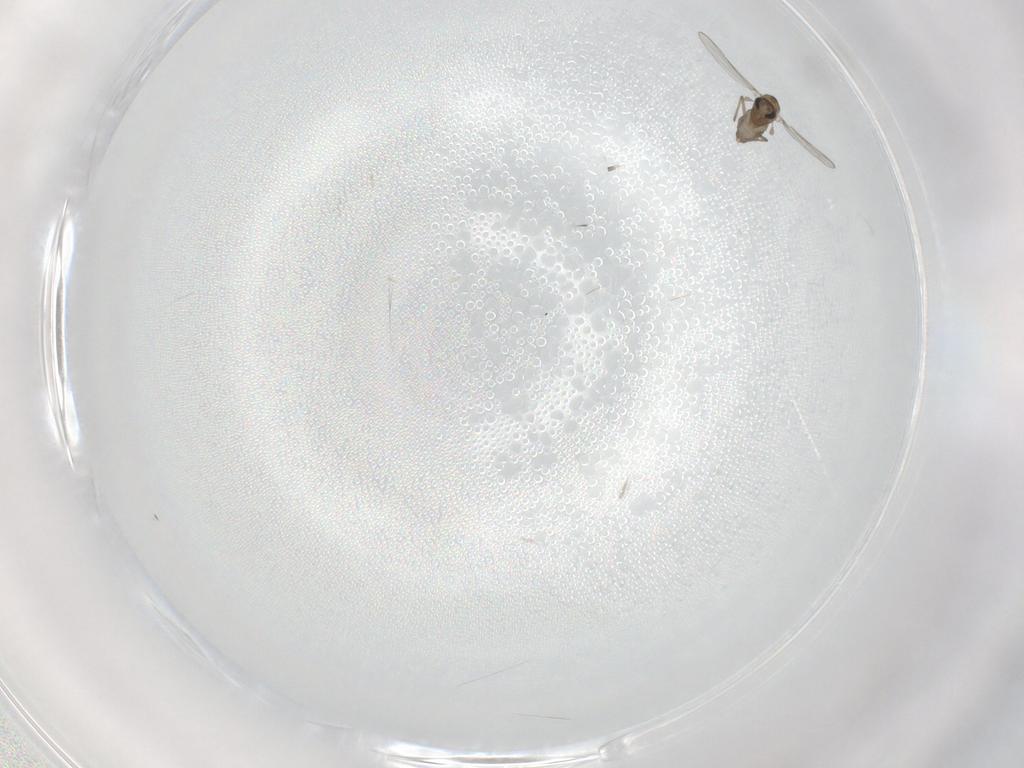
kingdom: Animalia
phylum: Arthropoda
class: Insecta
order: Diptera
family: Chironomidae
